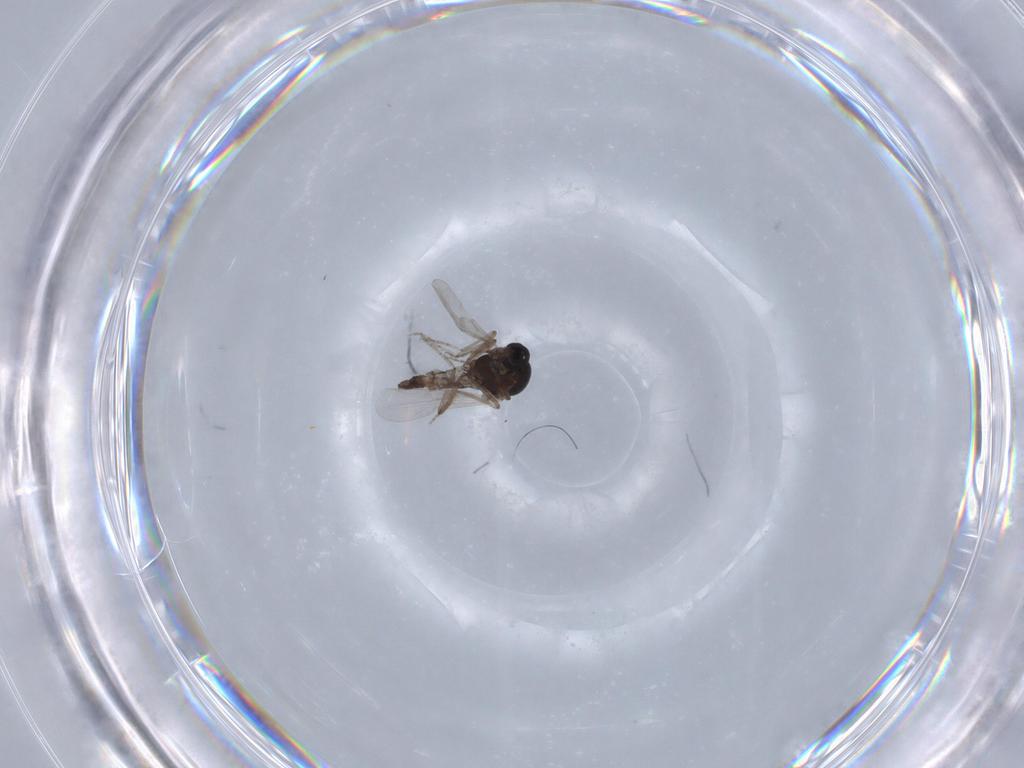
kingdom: Animalia
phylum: Arthropoda
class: Insecta
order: Diptera
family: Ceratopogonidae
